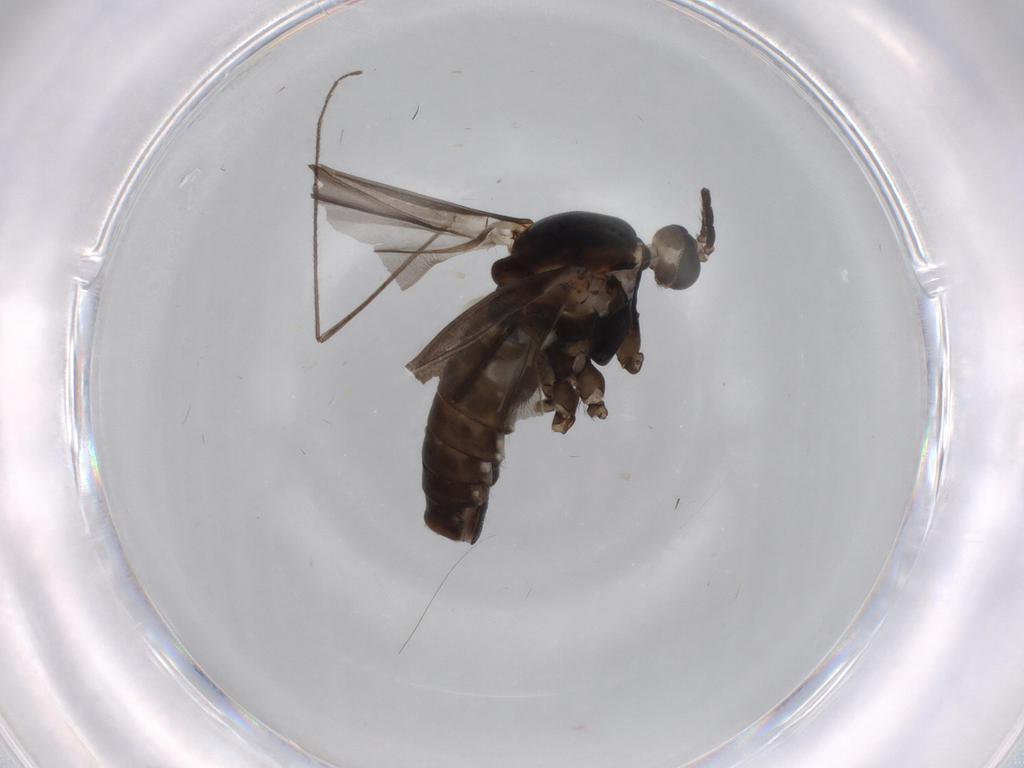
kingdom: Animalia
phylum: Arthropoda
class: Insecta
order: Diptera
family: Cecidomyiidae
